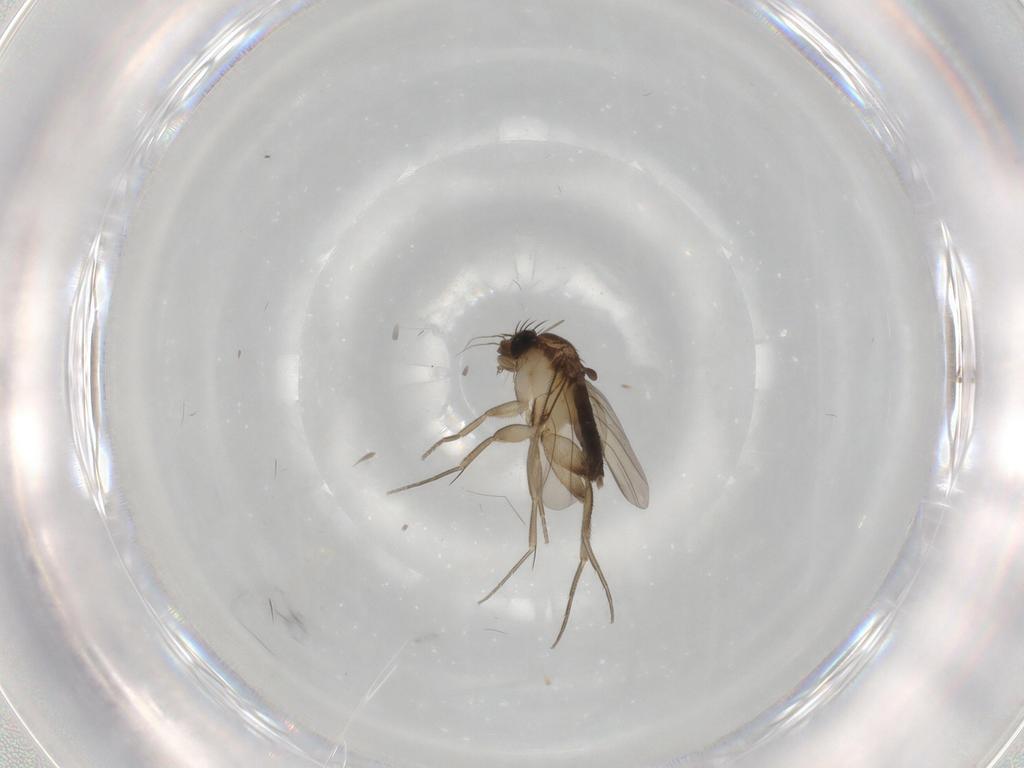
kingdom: Animalia
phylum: Arthropoda
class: Insecta
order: Diptera
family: Phoridae
